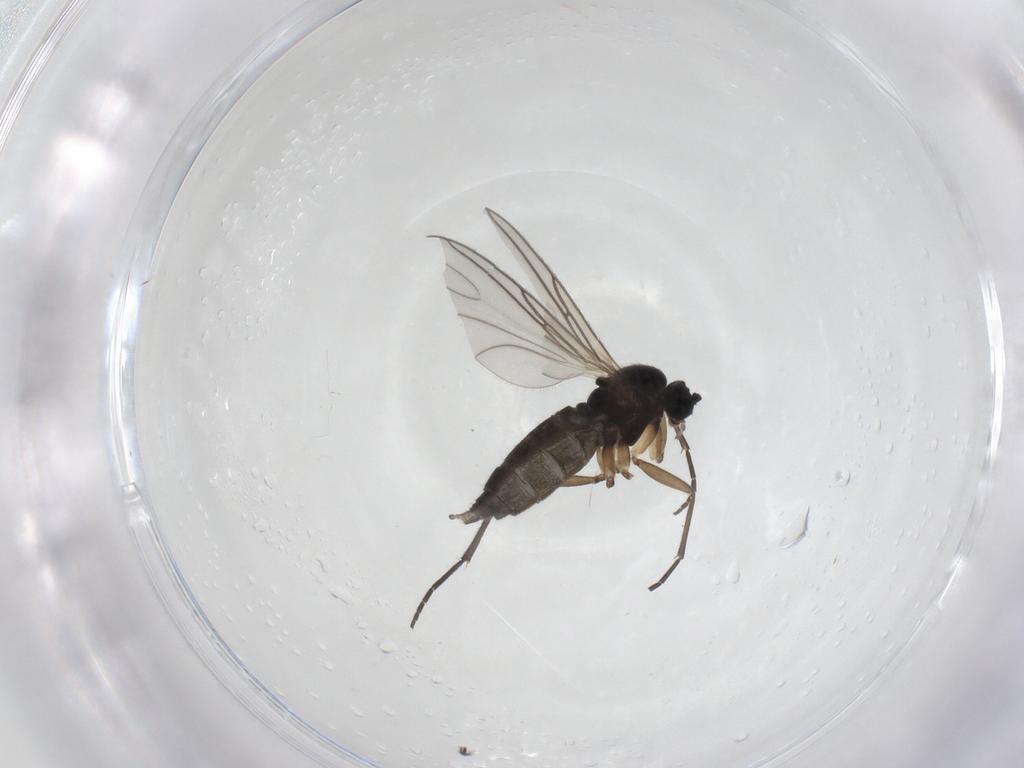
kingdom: Animalia
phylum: Arthropoda
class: Insecta
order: Diptera
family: Sciaridae
